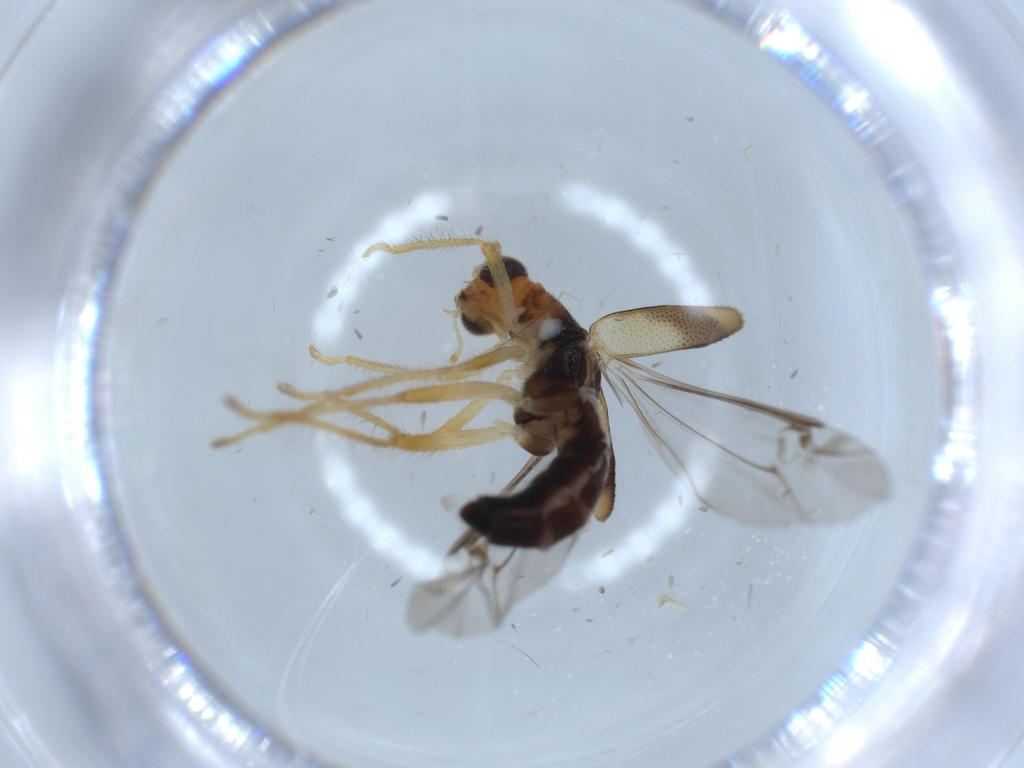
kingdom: Animalia
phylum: Arthropoda
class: Insecta
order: Coleoptera
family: Cleridae
